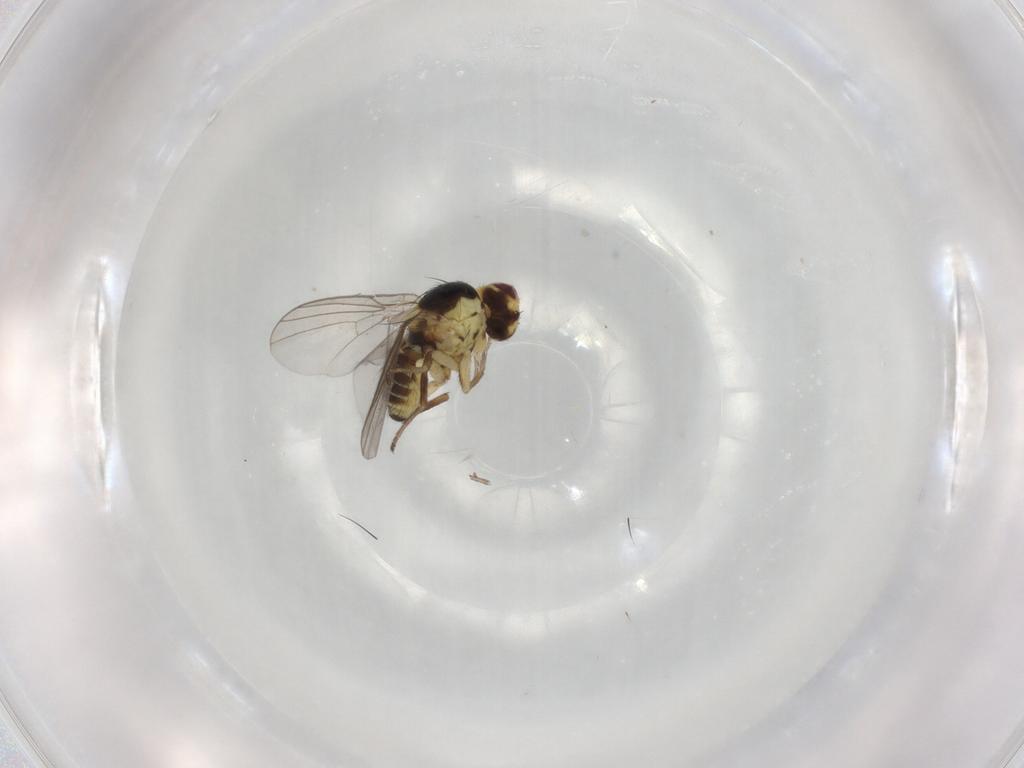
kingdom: Animalia
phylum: Arthropoda
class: Insecta
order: Diptera
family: Agromyzidae
